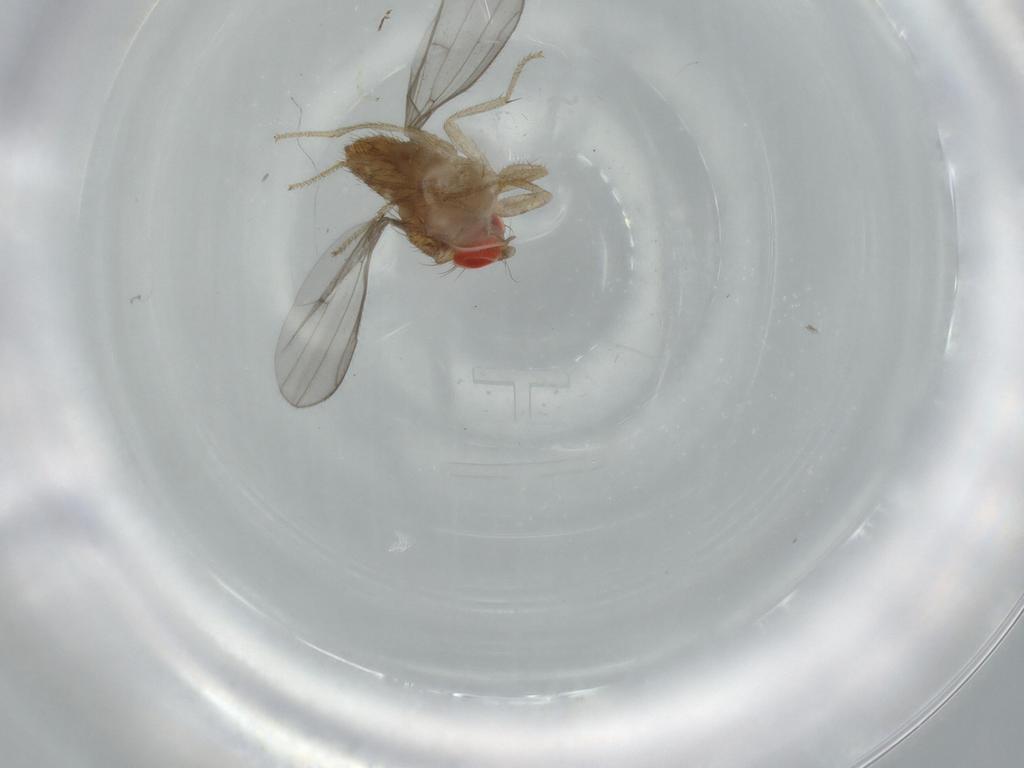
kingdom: Animalia
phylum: Arthropoda
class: Insecta
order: Diptera
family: Drosophilidae
